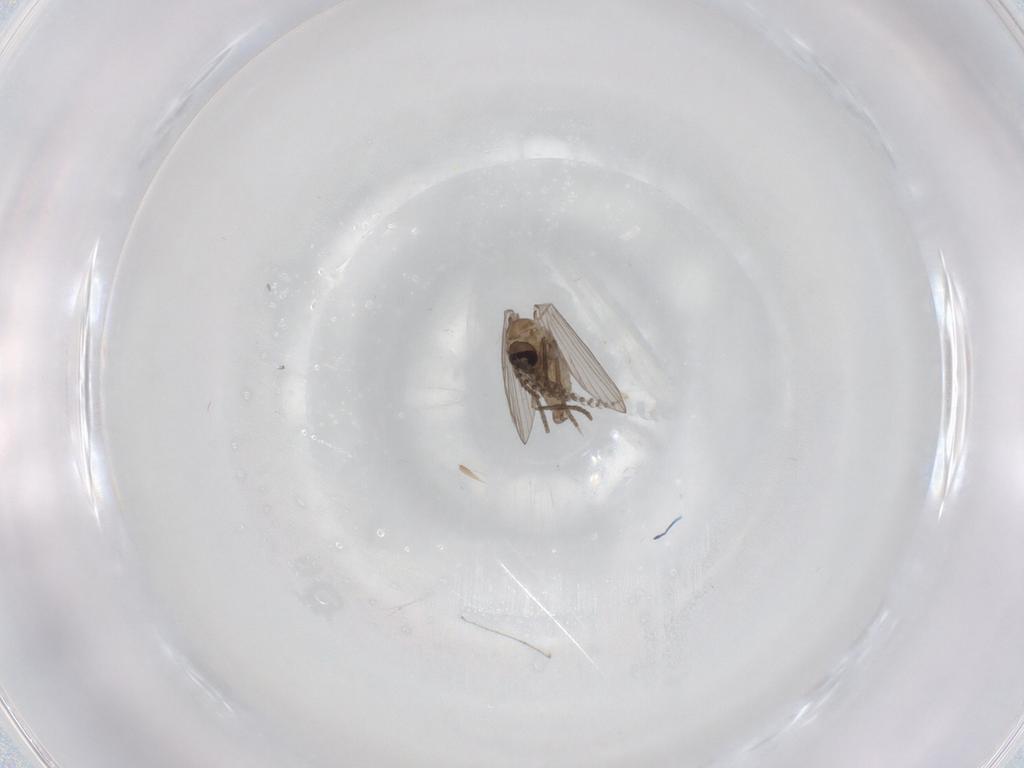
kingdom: Animalia
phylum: Arthropoda
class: Insecta
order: Diptera
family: Psychodidae
